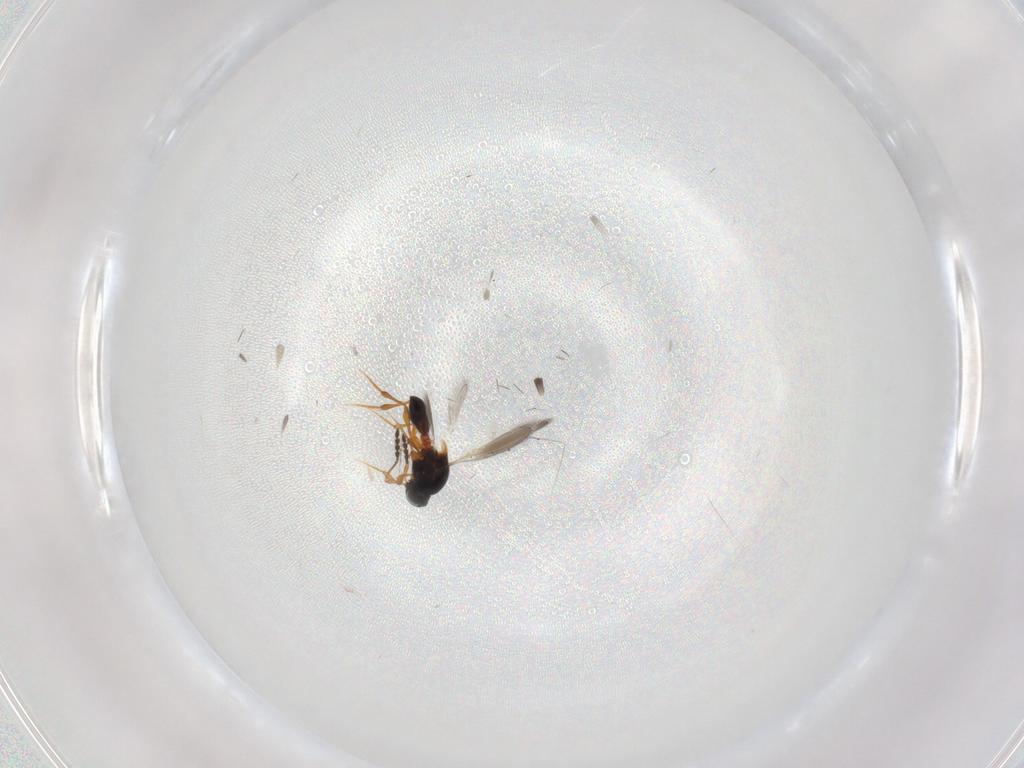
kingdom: Animalia
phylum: Arthropoda
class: Insecta
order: Hymenoptera
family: Platygastridae
